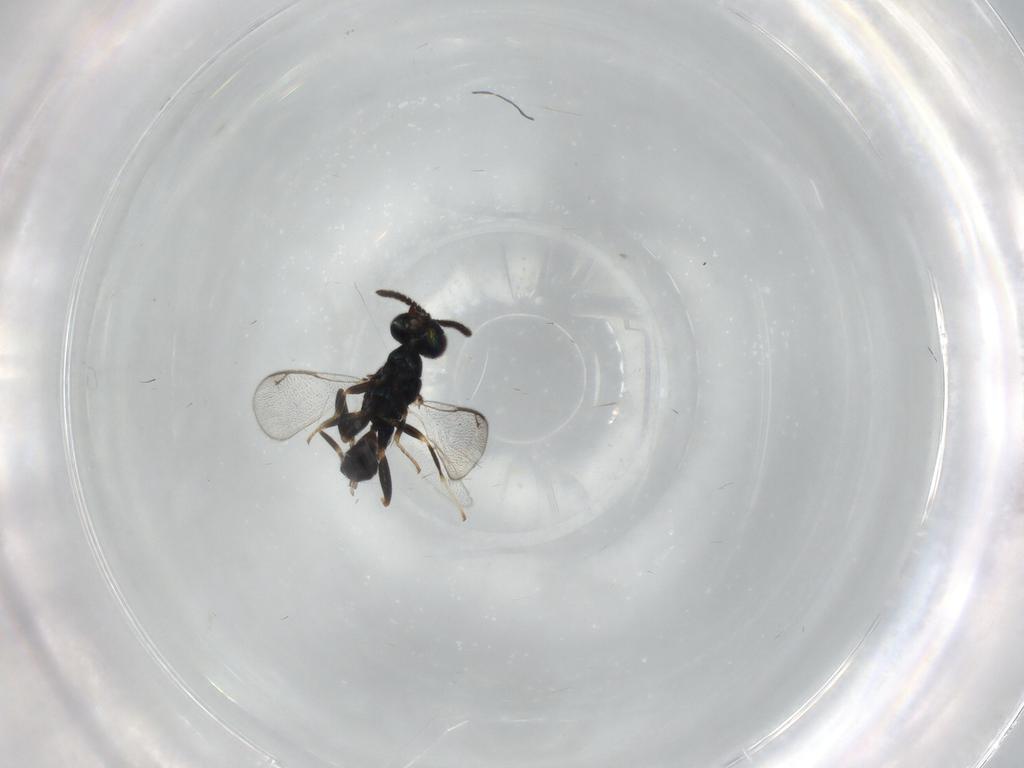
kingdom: Animalia
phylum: Arthropoda
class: Insecta
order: Hymenoptera
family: Cleonyminae
